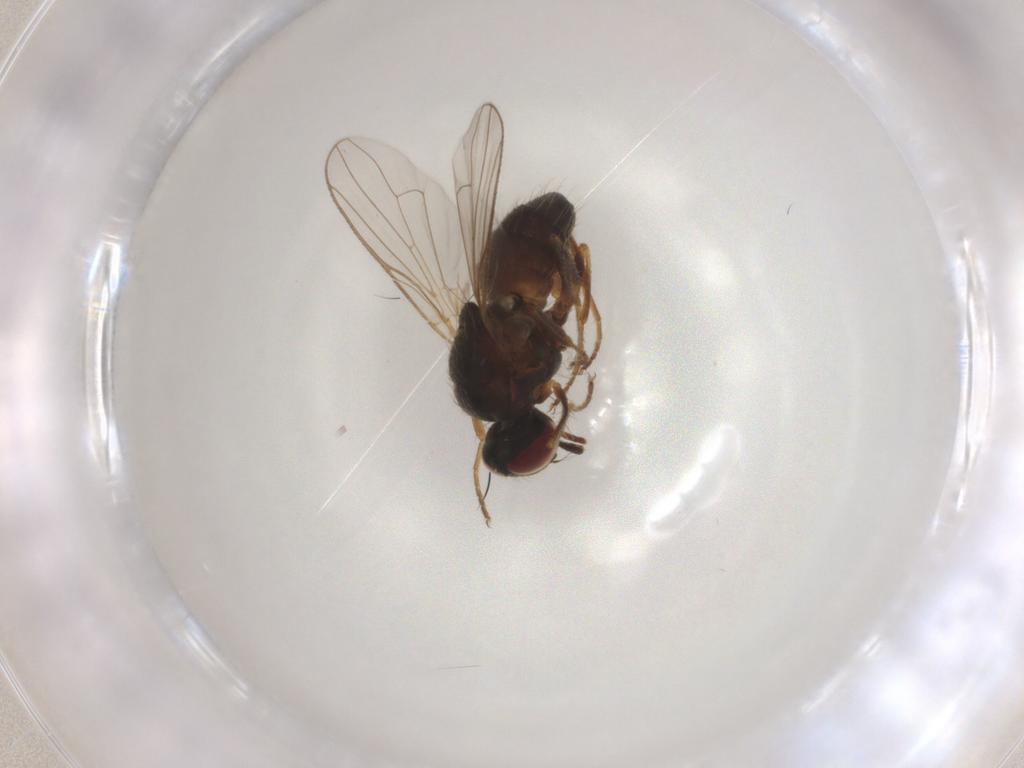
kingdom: Animalia
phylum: Arthropoda
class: Insecta
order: Diptera
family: Muscidae
